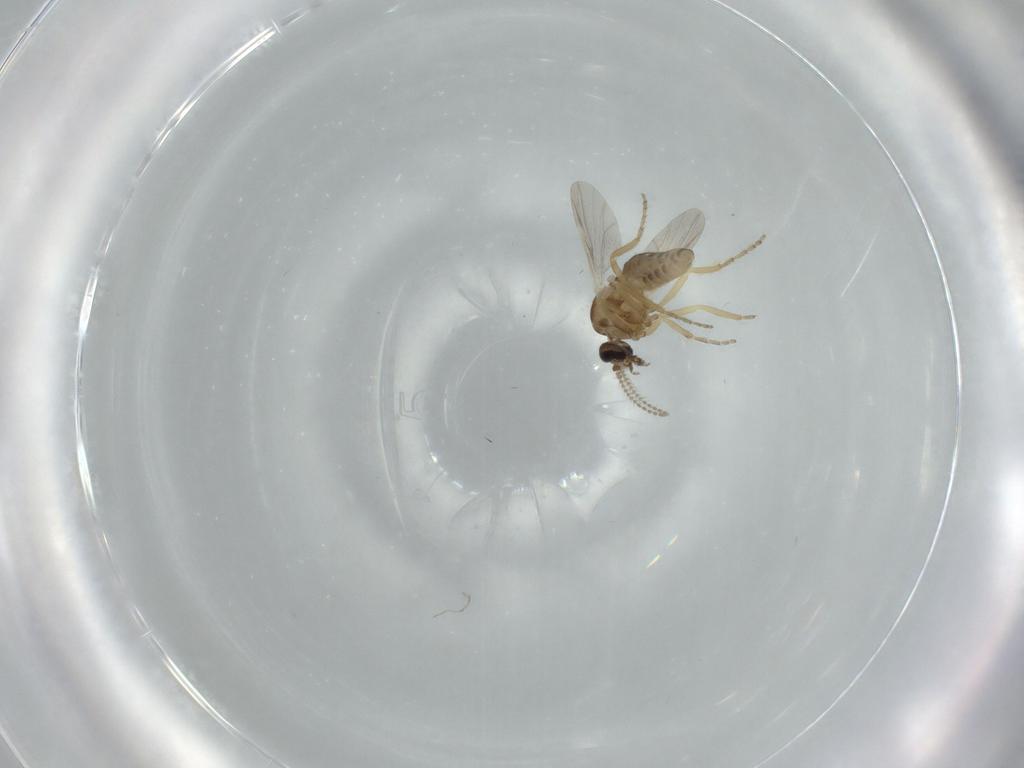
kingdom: Animalia
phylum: Arthropoda
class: Insecta
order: Diptera
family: Ceratopogonidae
